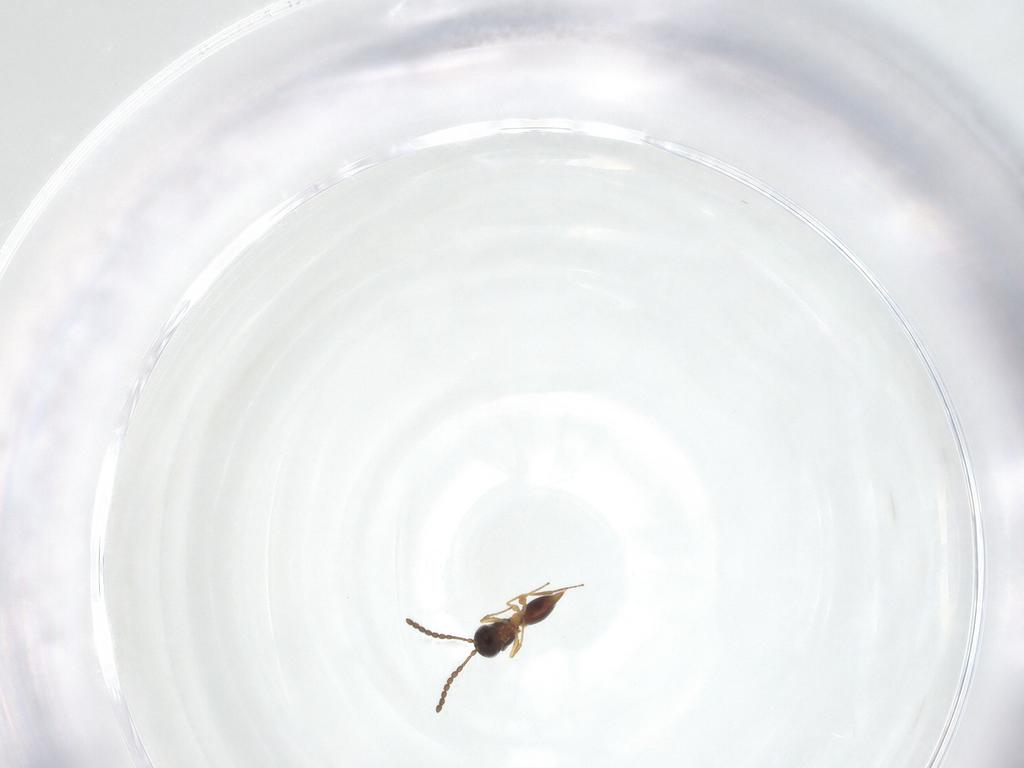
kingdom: Animalia
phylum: Arthropoda
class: Insecta
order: Hymenoptera
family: Figitidae
